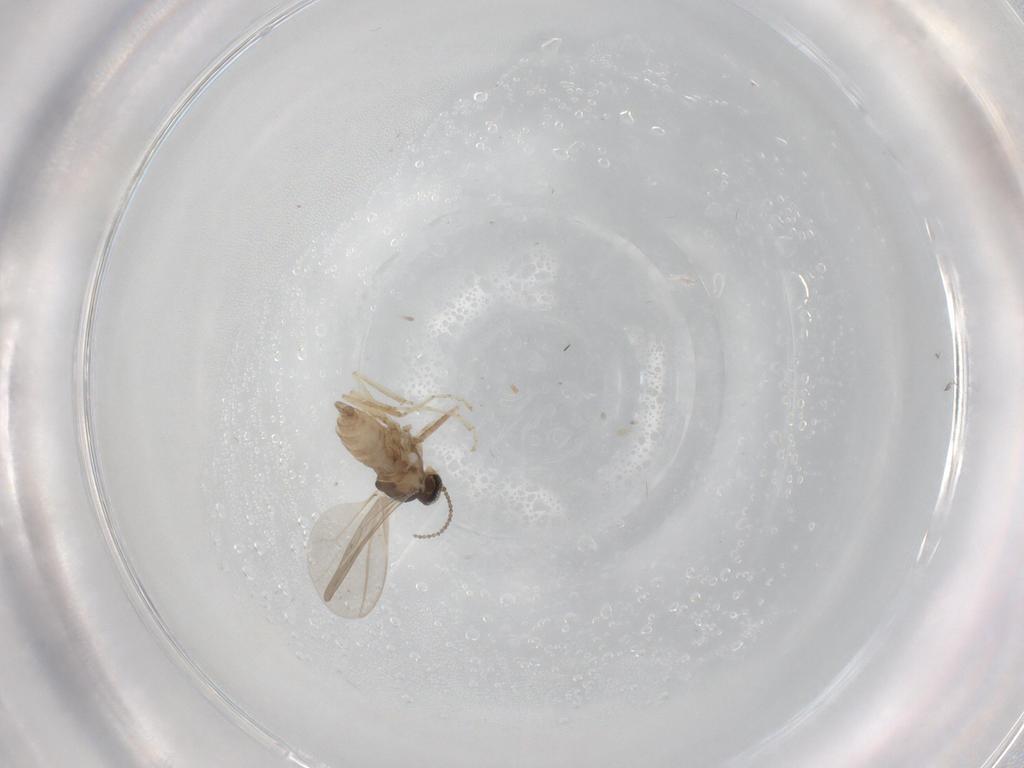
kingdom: Animalia
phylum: Arthropoda
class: Insecta
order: Diptera
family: Cecidomyiidae
